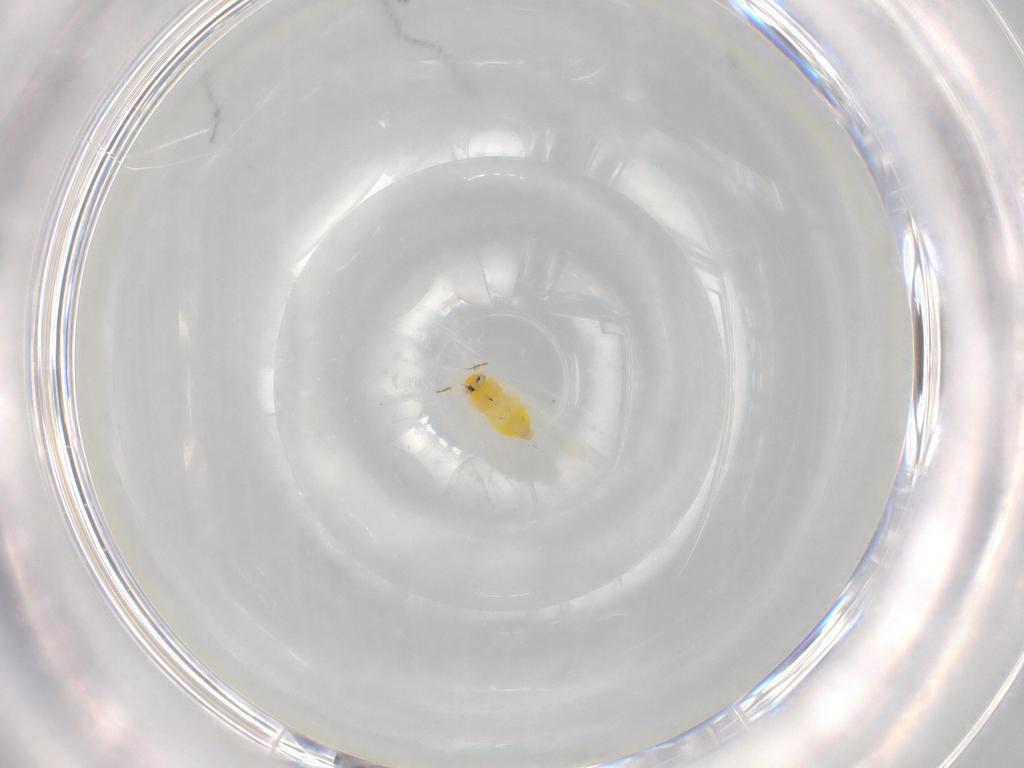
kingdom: Animalia
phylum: Arthropoda
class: Insecta
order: Hemiptera
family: Aleyrodidae
